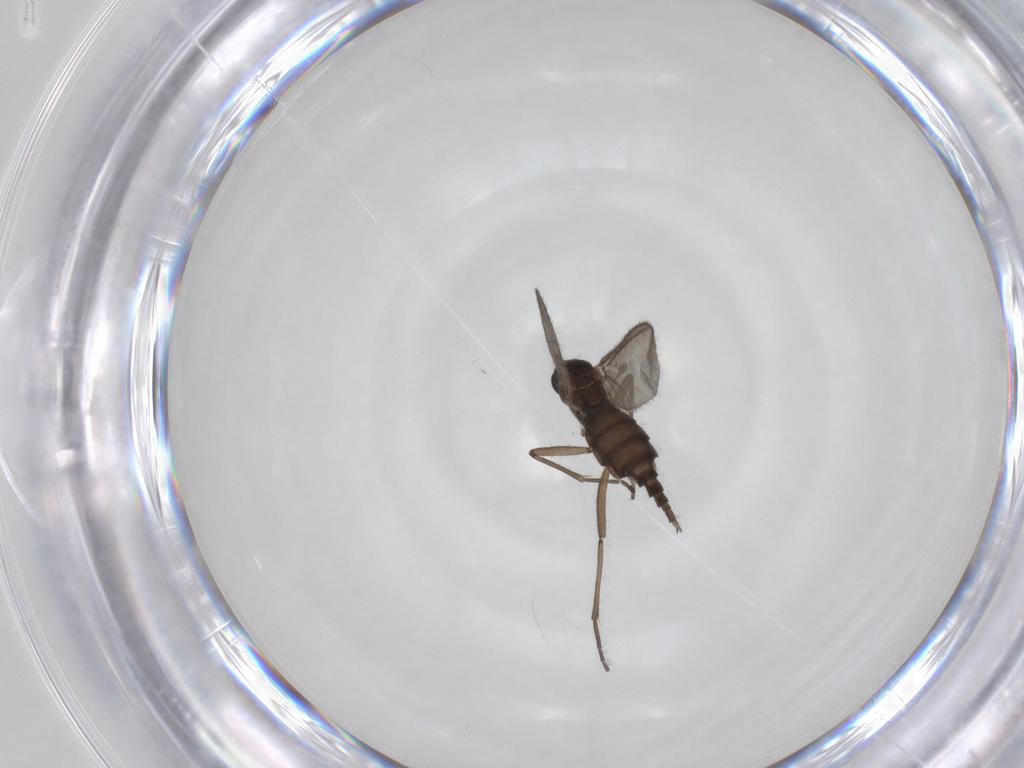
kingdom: Animalia
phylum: Arthropoda
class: Insecta
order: Diptera
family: Sciaridae
